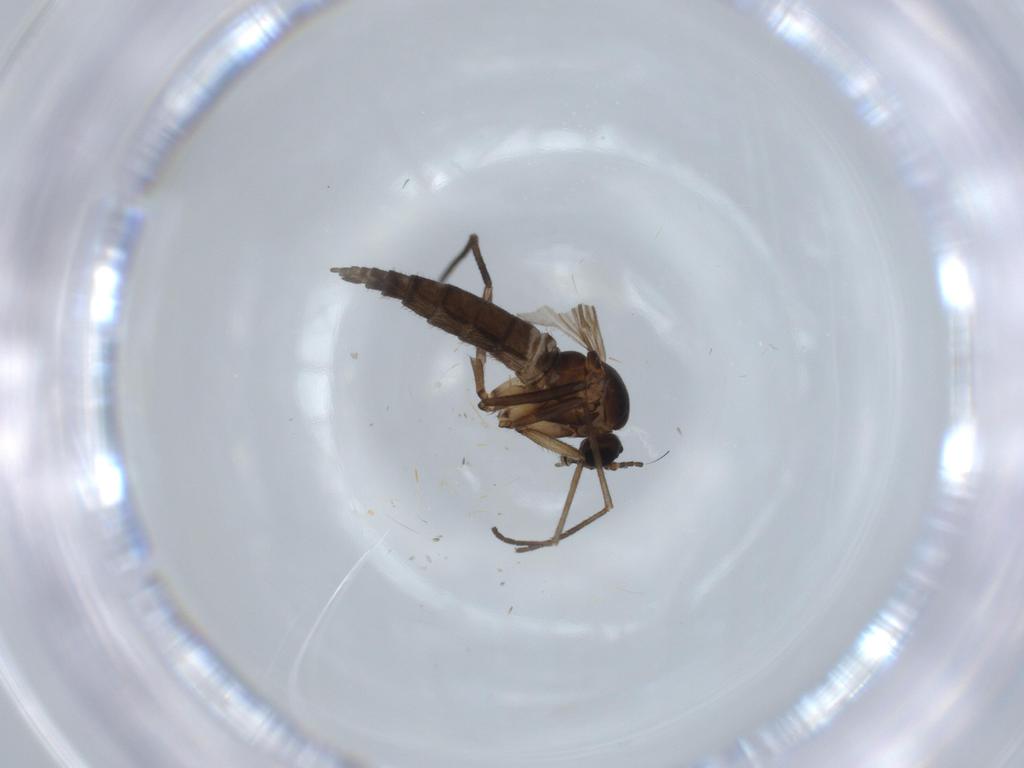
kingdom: Animalia
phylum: Arthropoda
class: Insecta
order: Diptera
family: Sciaridae
